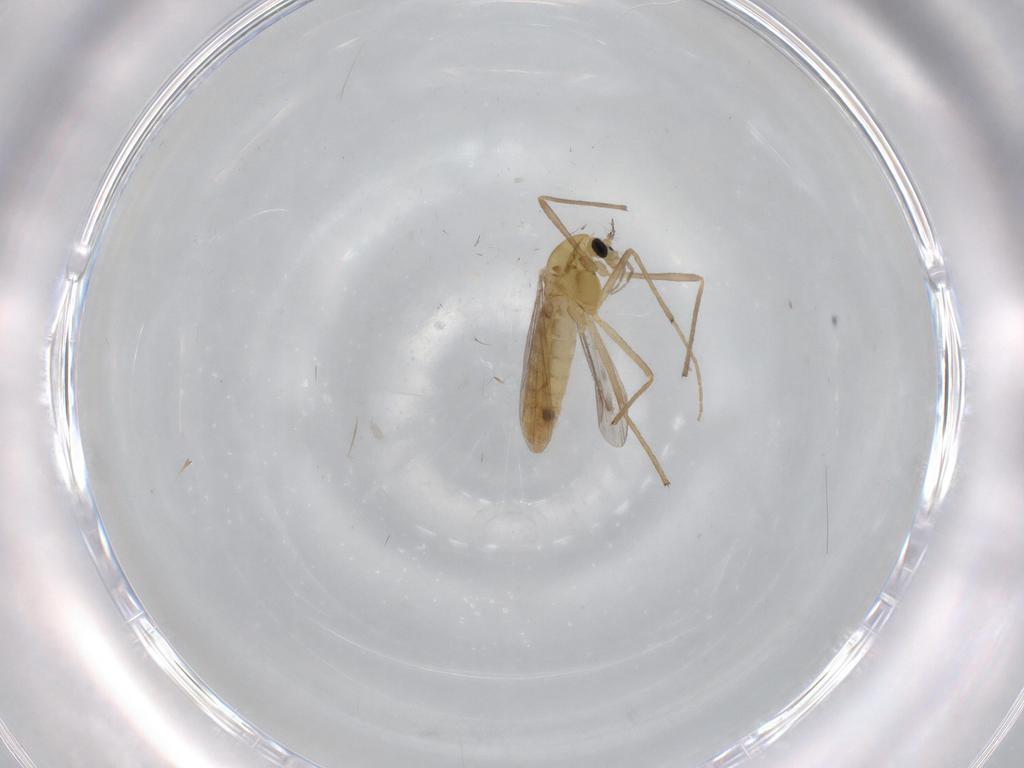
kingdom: Animalia
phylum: Arthropoda
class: Insecta
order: Diptera
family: Chironomidae
